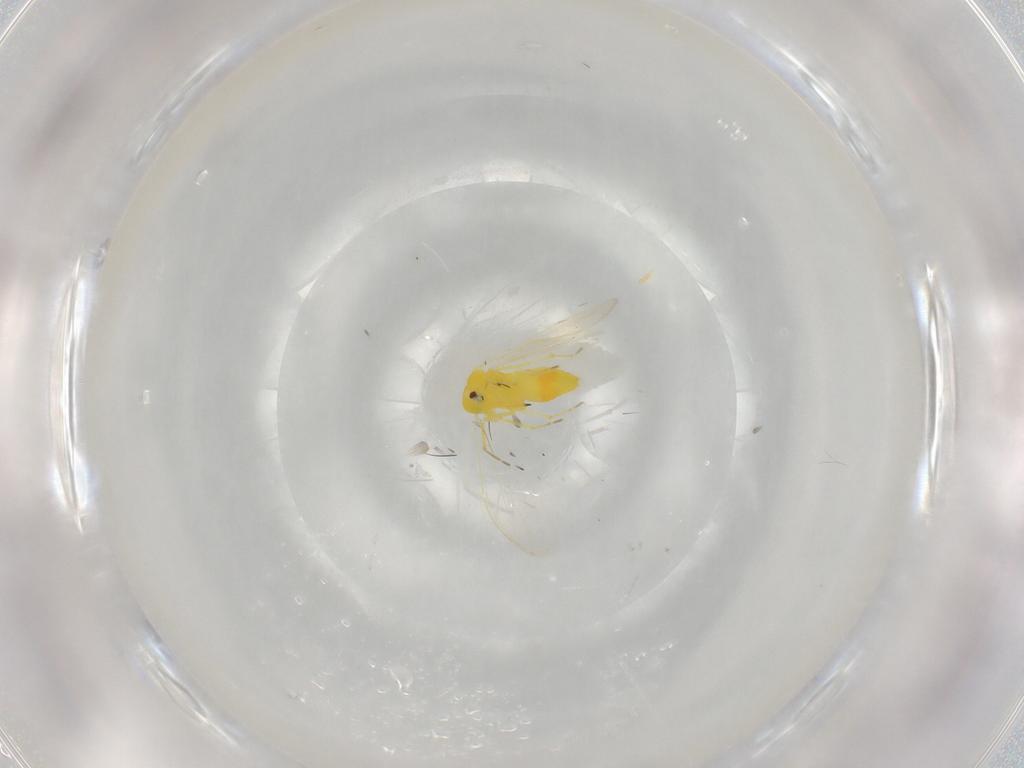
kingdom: Animalia
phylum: Arthropoda
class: Insecta
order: Hemiptera
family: Aleyrodidae
